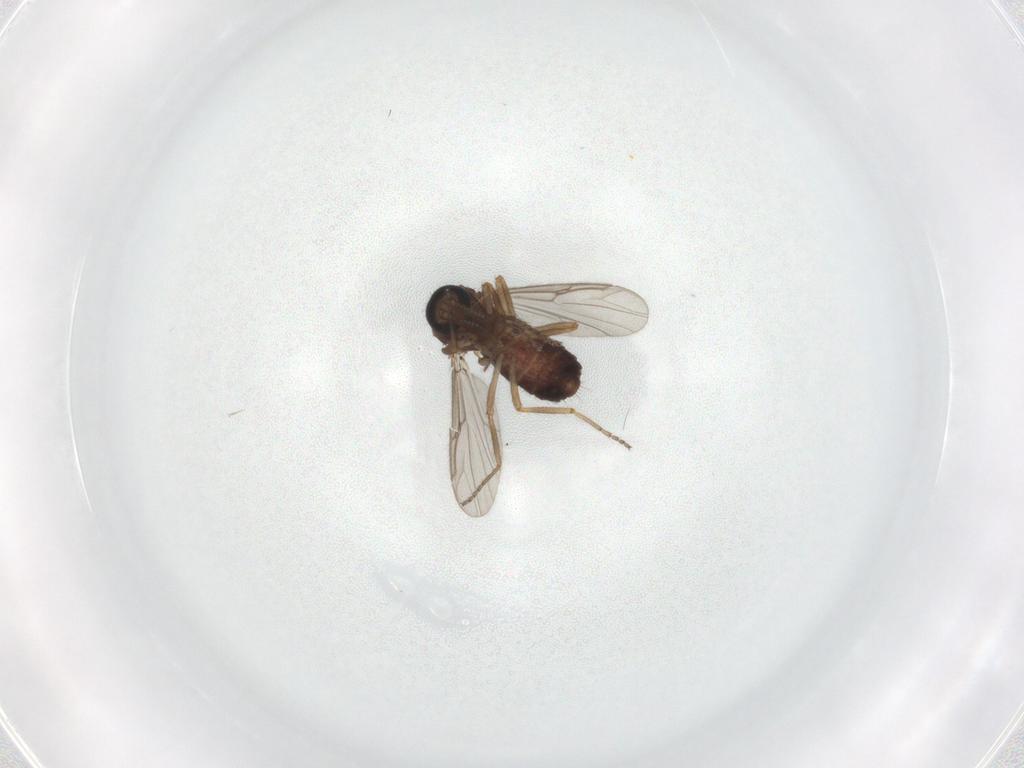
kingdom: Animalia
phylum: Arthropoda
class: Insecta
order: Diptera
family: Ceratopogonidae
